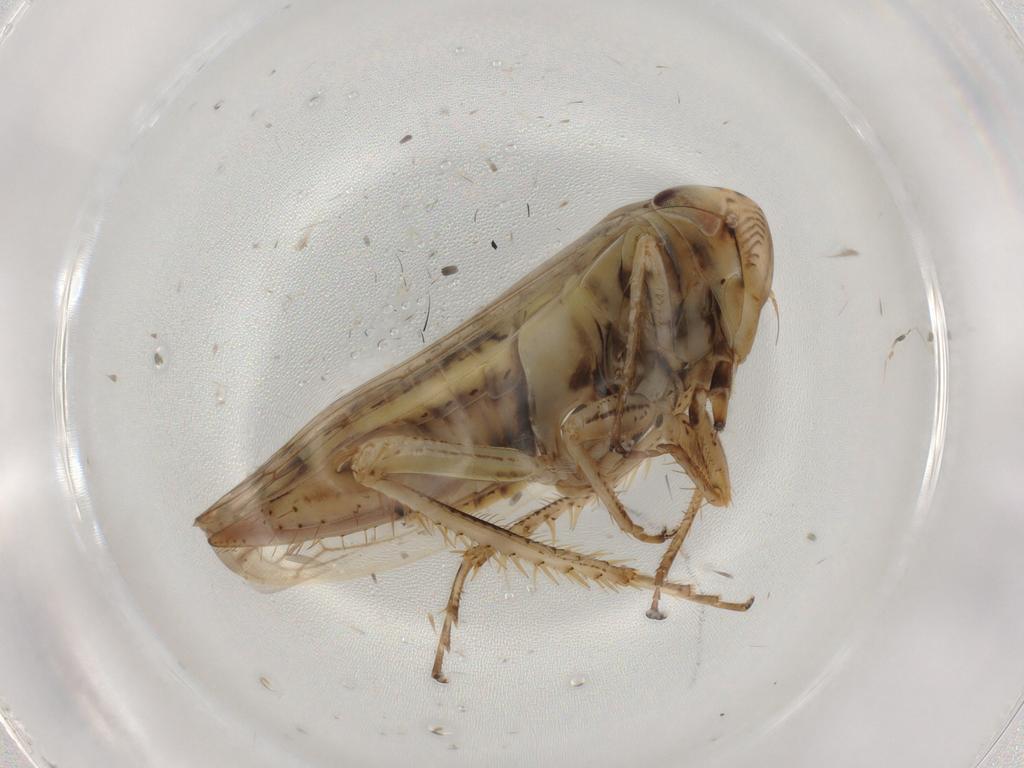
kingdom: Animalia
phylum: Arthropoda
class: Insecta
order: Hemiptera
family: Cicadellidae
